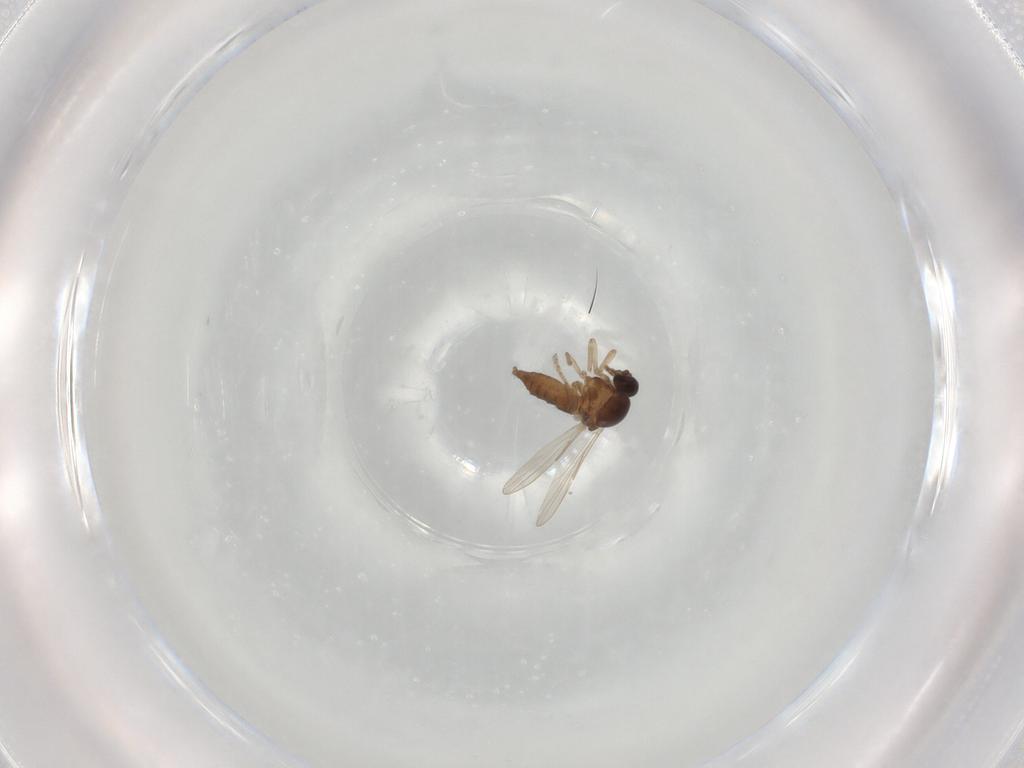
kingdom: Animalia
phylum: Arthropoda
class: Insecta
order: Diptera
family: Ceratopogonidae
